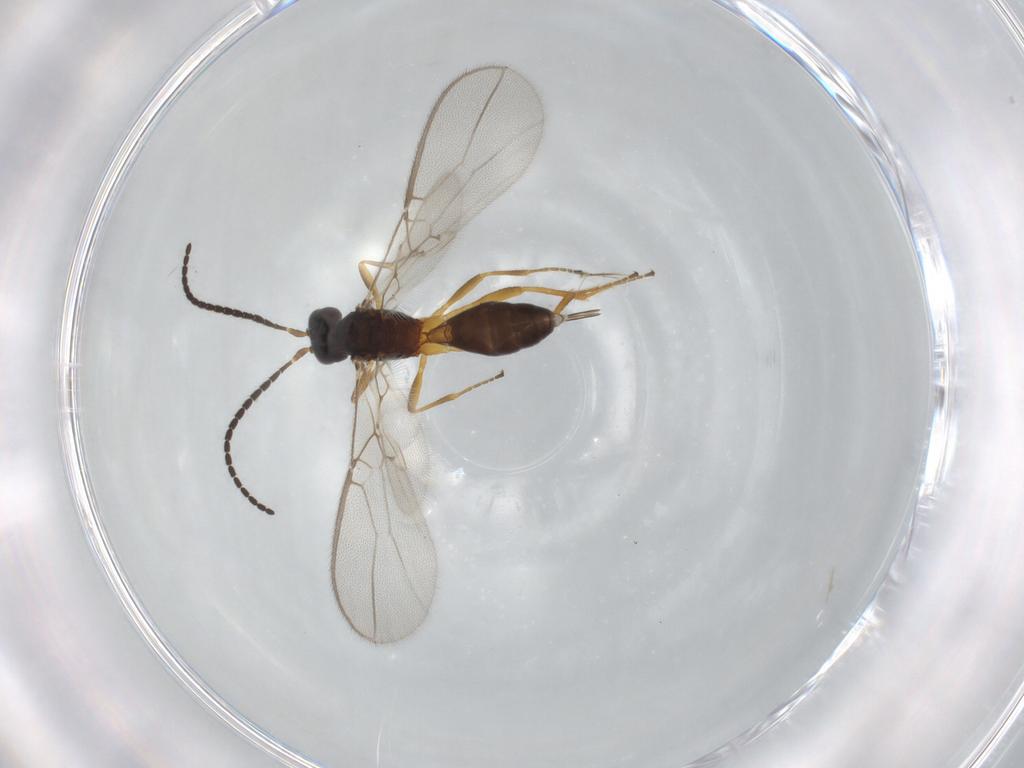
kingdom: Animalia
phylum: Arthropoda
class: Insecta
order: Hymenoptera
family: Braconidae
